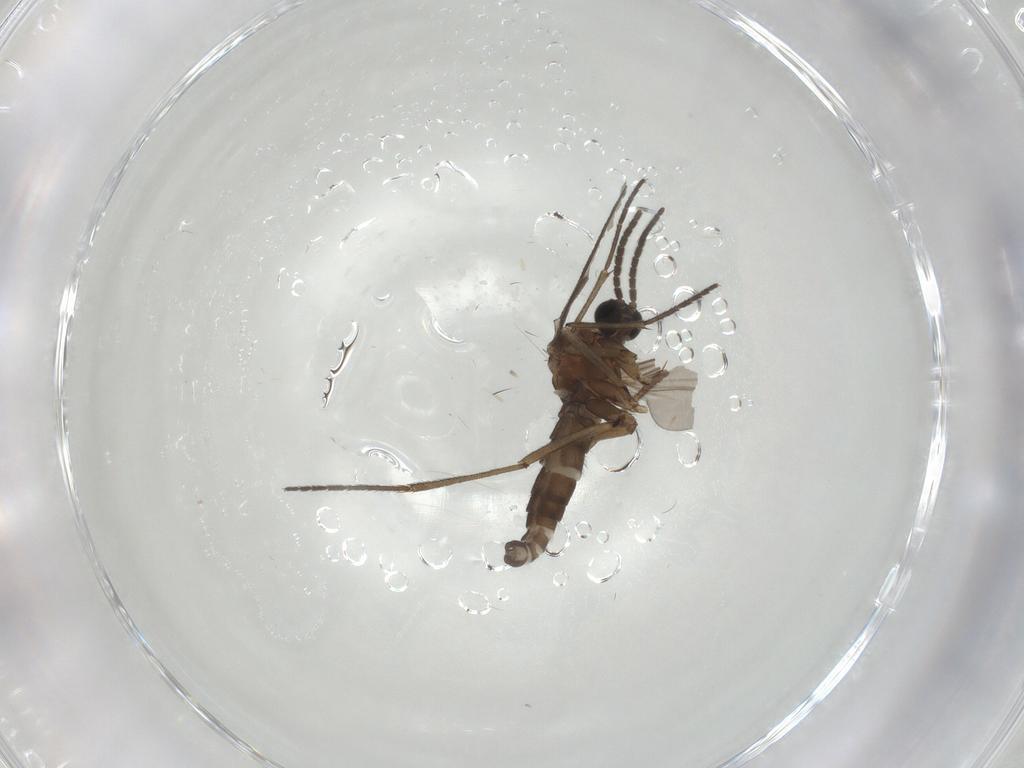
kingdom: Animalia
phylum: Arthropoda
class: Insecta
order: Diptera
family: Sciaridae
